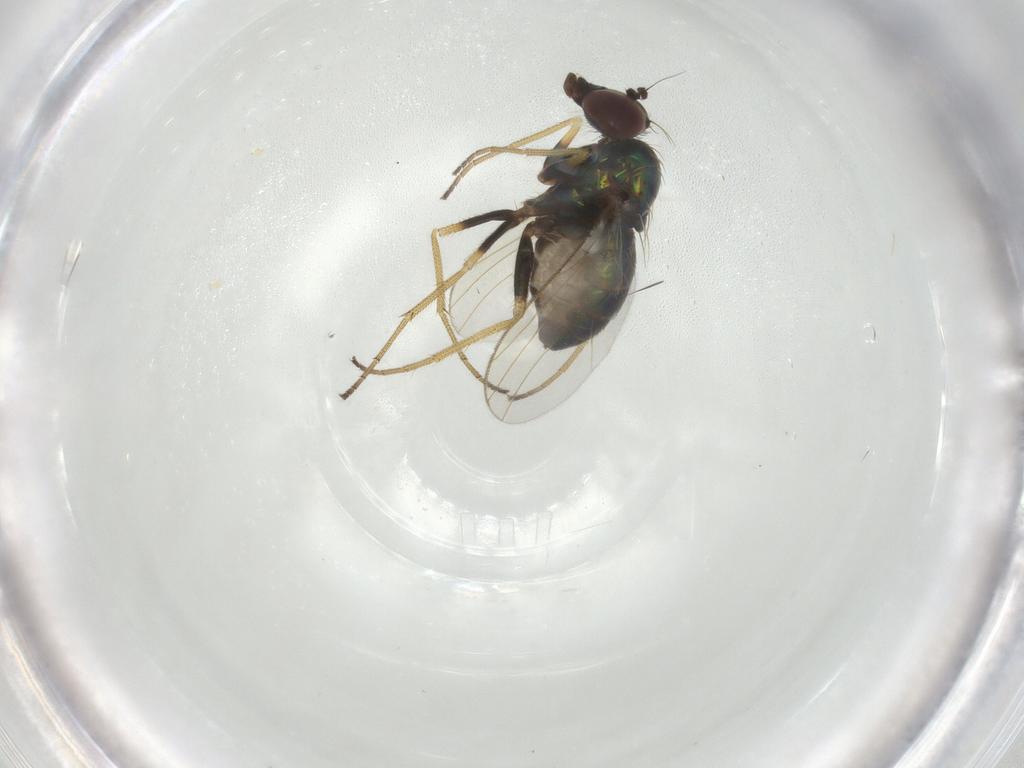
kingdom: Animalia
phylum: Arthropoda
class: Insecta
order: Diptera
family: Dolichopodidae
